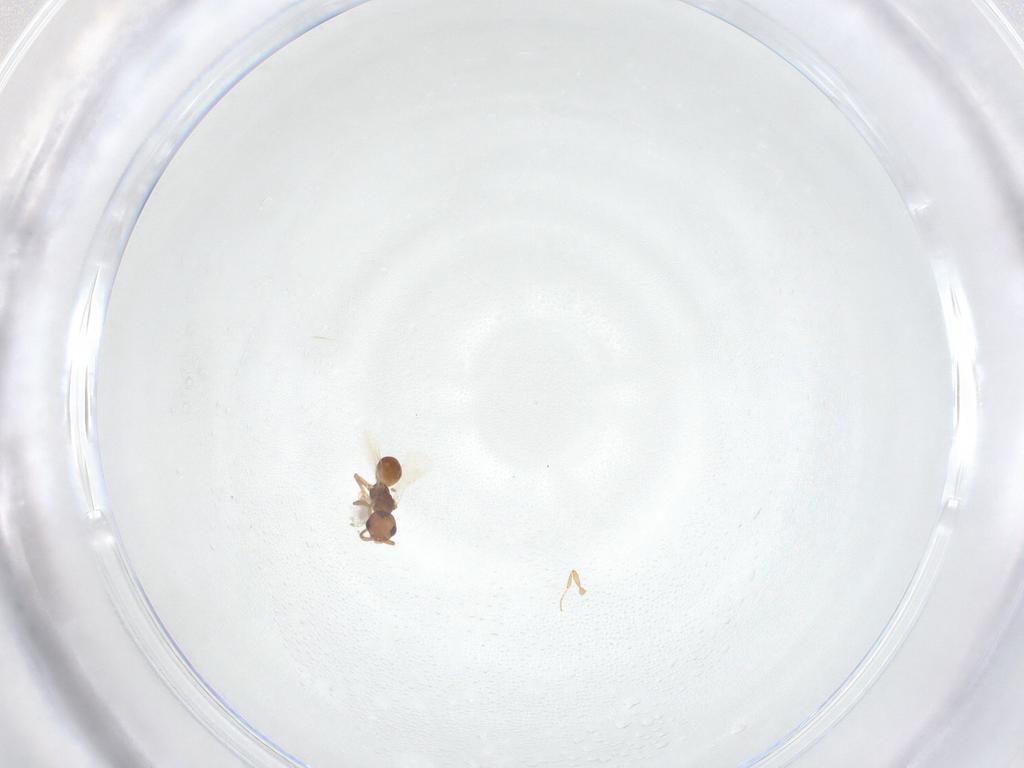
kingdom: Animalia
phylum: Arthropoda
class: Insecta
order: Hymenoptera
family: Bethylidae
